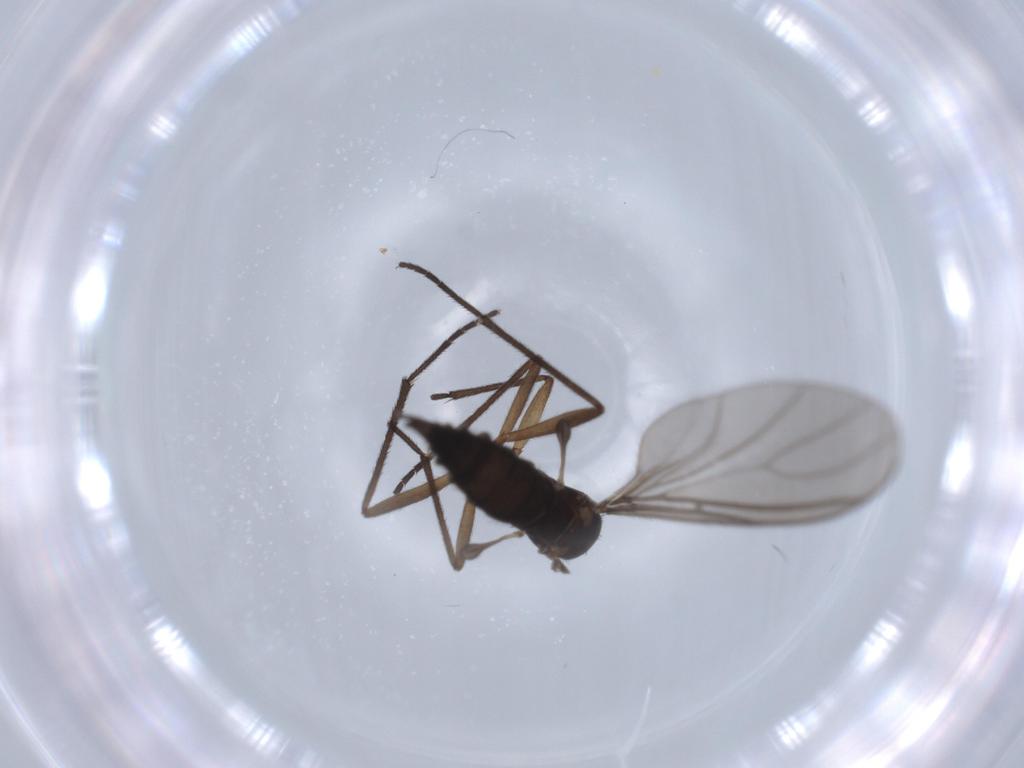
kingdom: Animalia
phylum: Arthropoda
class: Insecta
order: Diptera
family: Sciaridae
